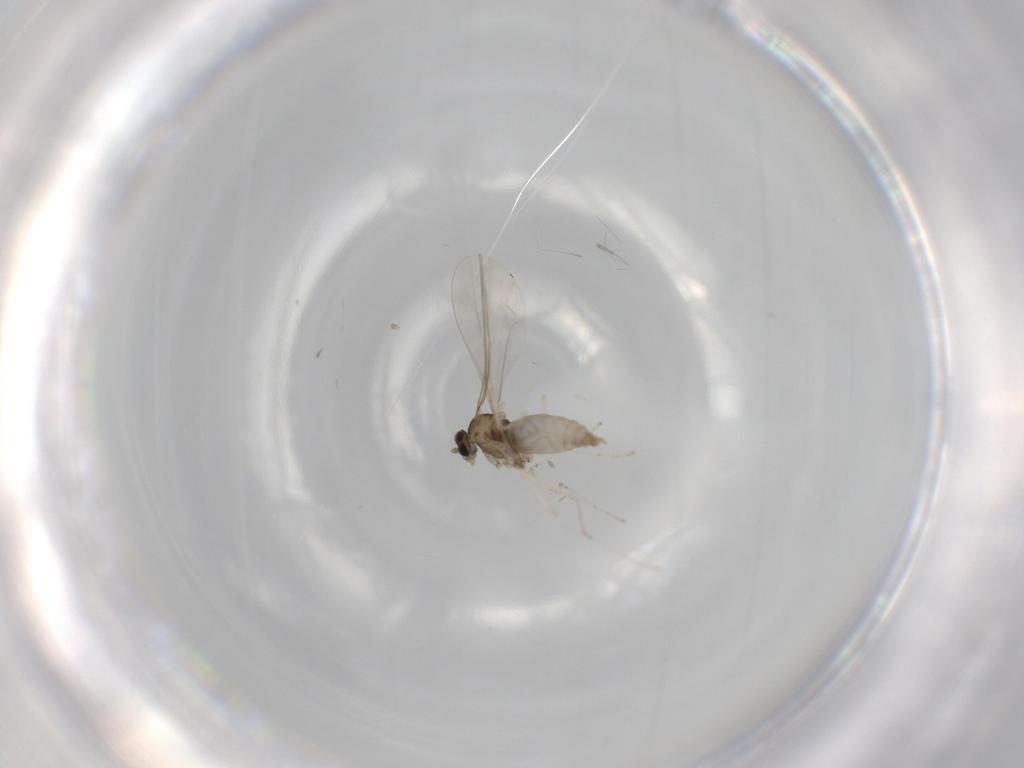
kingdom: Animalia
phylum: Arthropoda
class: Insecta
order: Diptera
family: Cecidomyiidae
